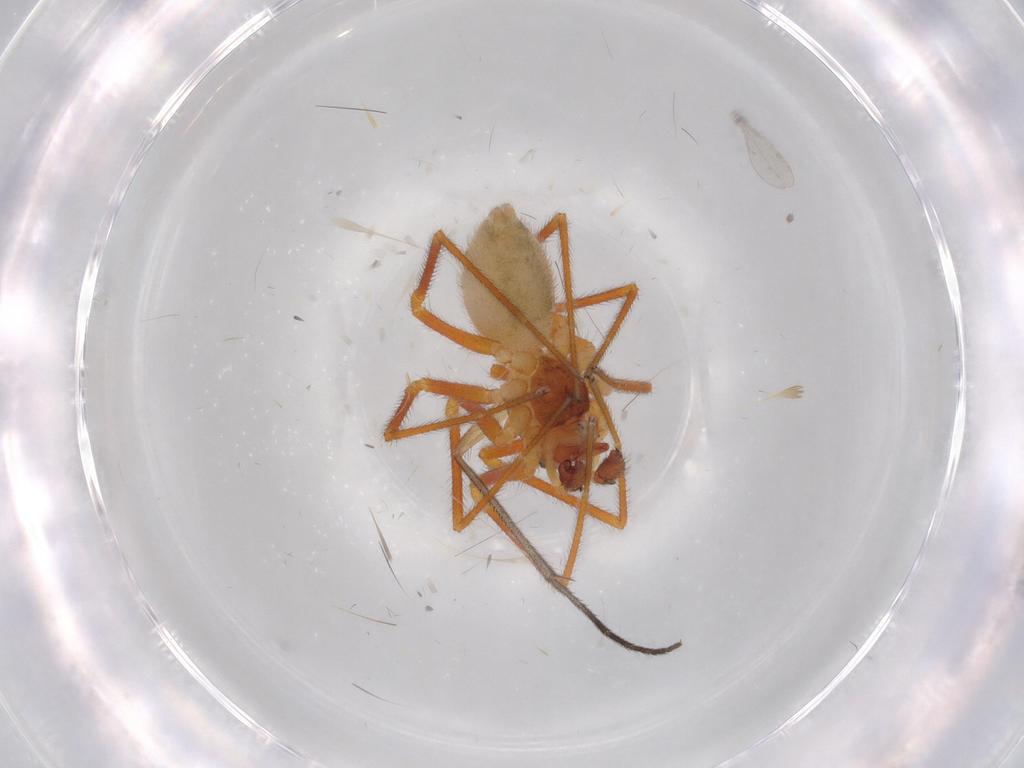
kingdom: Animalia
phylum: Arthropoda
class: Arachnida
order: Araneae
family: Linyphiidae
